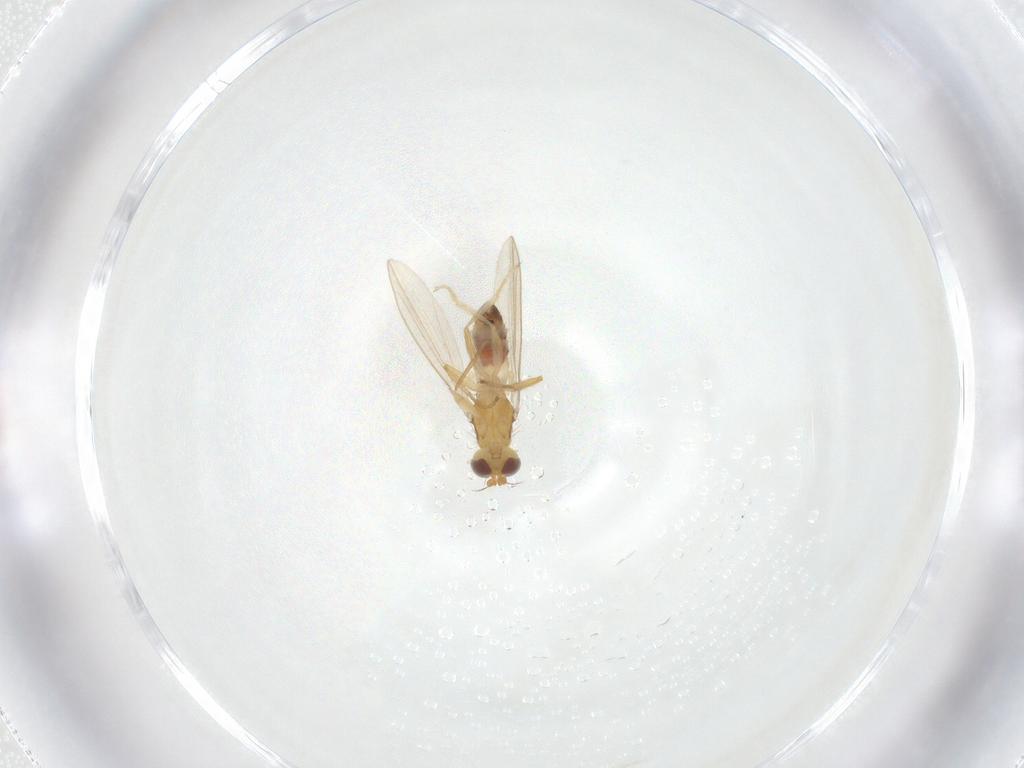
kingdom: Animalia
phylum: Arthropoda
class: Insecta
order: Diptera
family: Periscelididae
